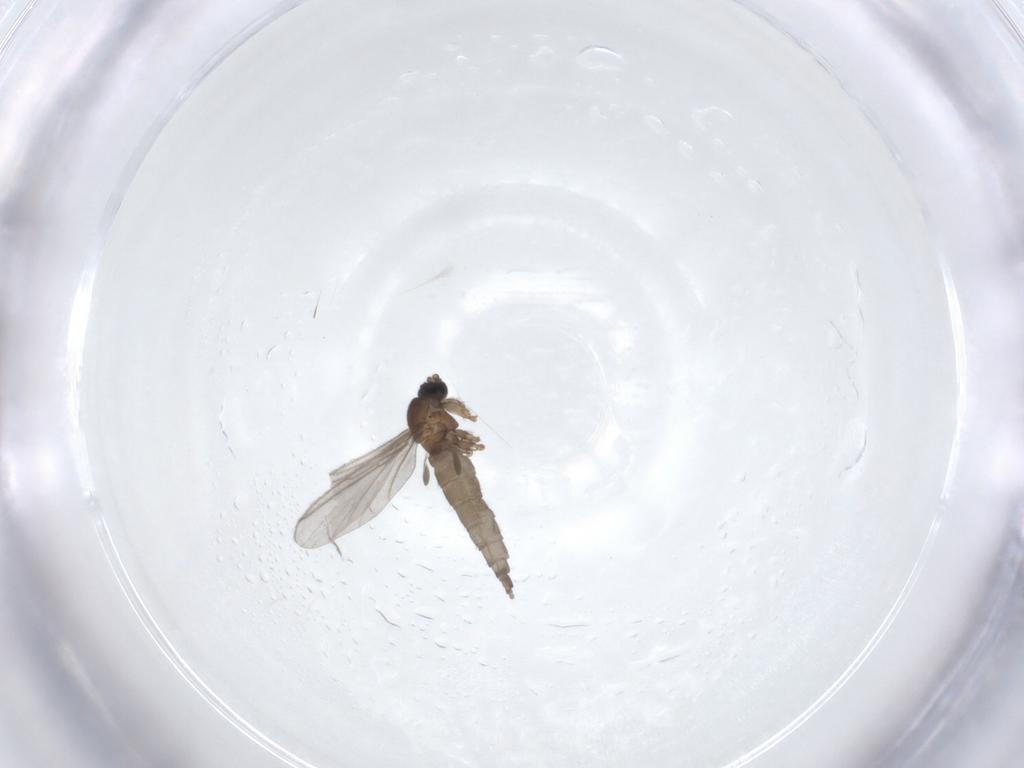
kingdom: Animalia
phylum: Arthropoda
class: Insecta
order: Diptera
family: Sciaridae
